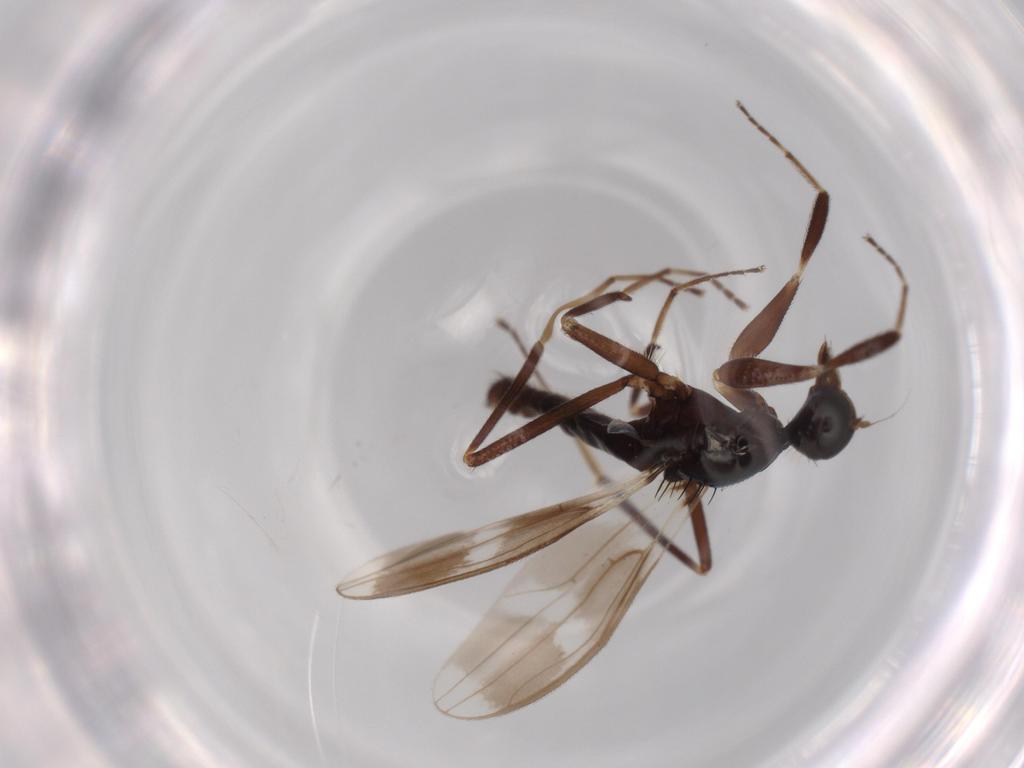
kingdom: Animalia
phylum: Arthropoda
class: Insecta
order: Diptera
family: Hybotidae
